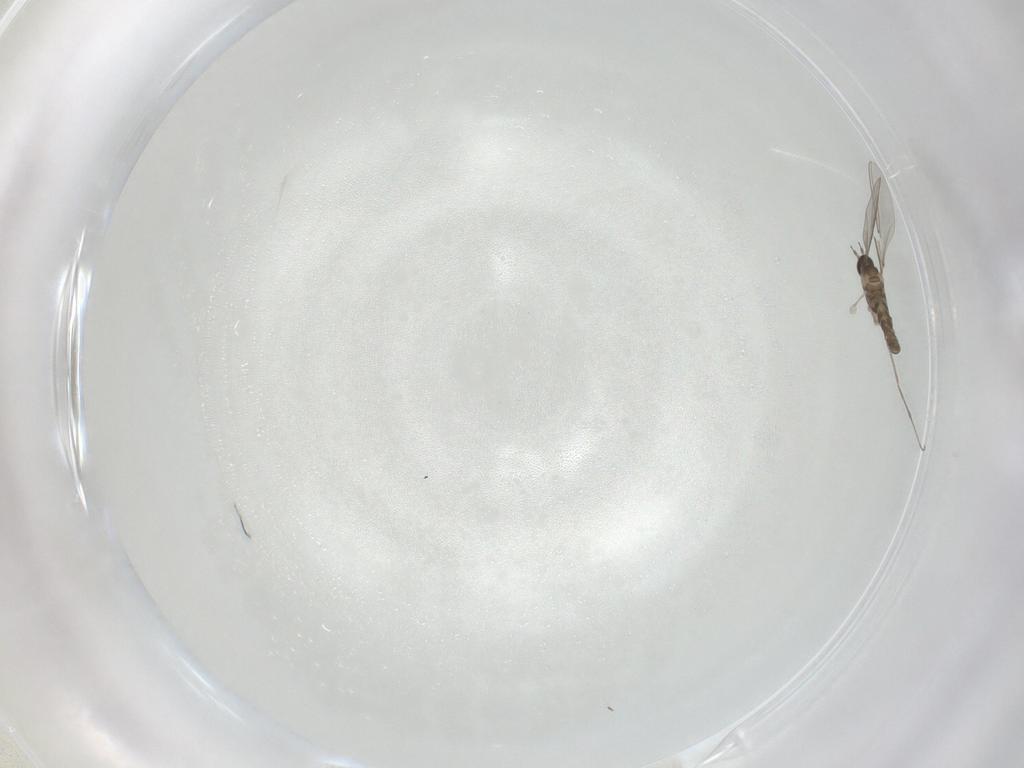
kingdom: Animalia
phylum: Arthropoda
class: Insecta
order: Diptera
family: Cecidomyiidae
